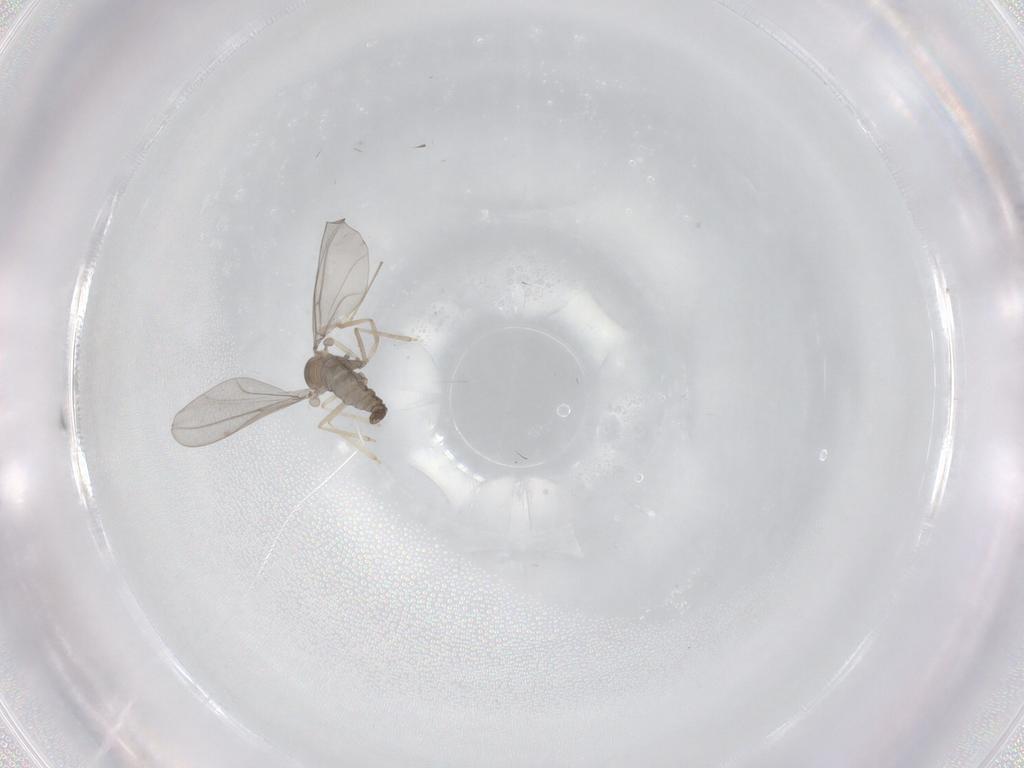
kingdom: Animalia
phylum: Arthropoda
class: Insecta
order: Diptera
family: Cecidomyiidae
